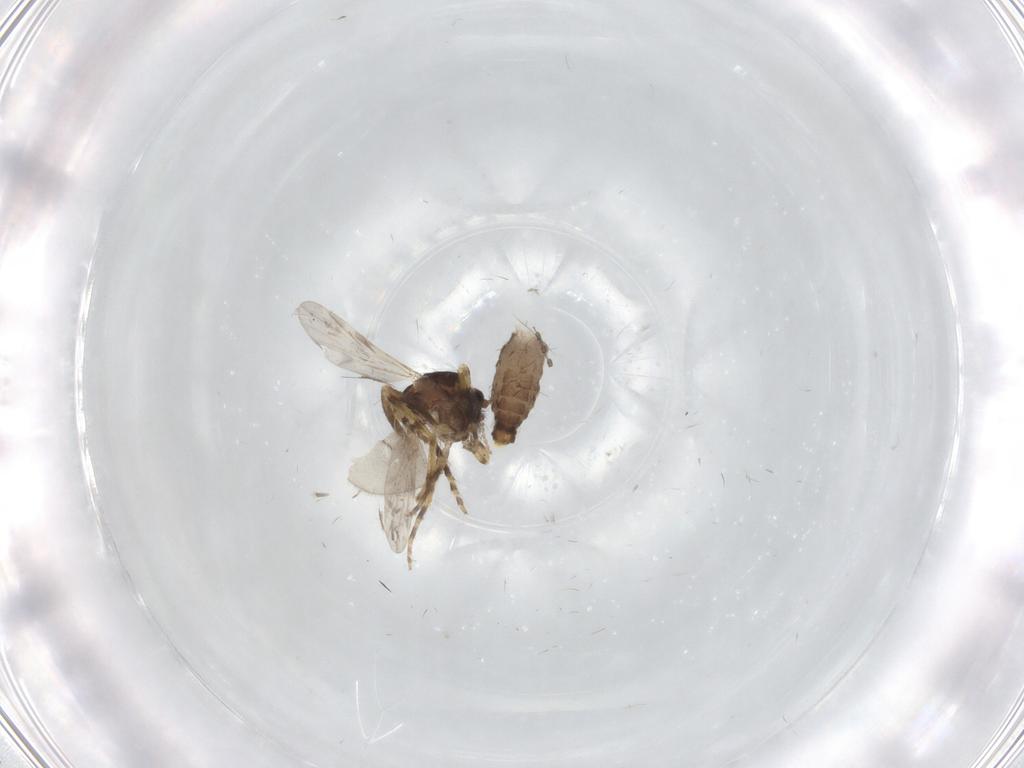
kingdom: Animalia
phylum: Arthropoda
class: Insecta
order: Diptera
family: Ceratopogonidae
